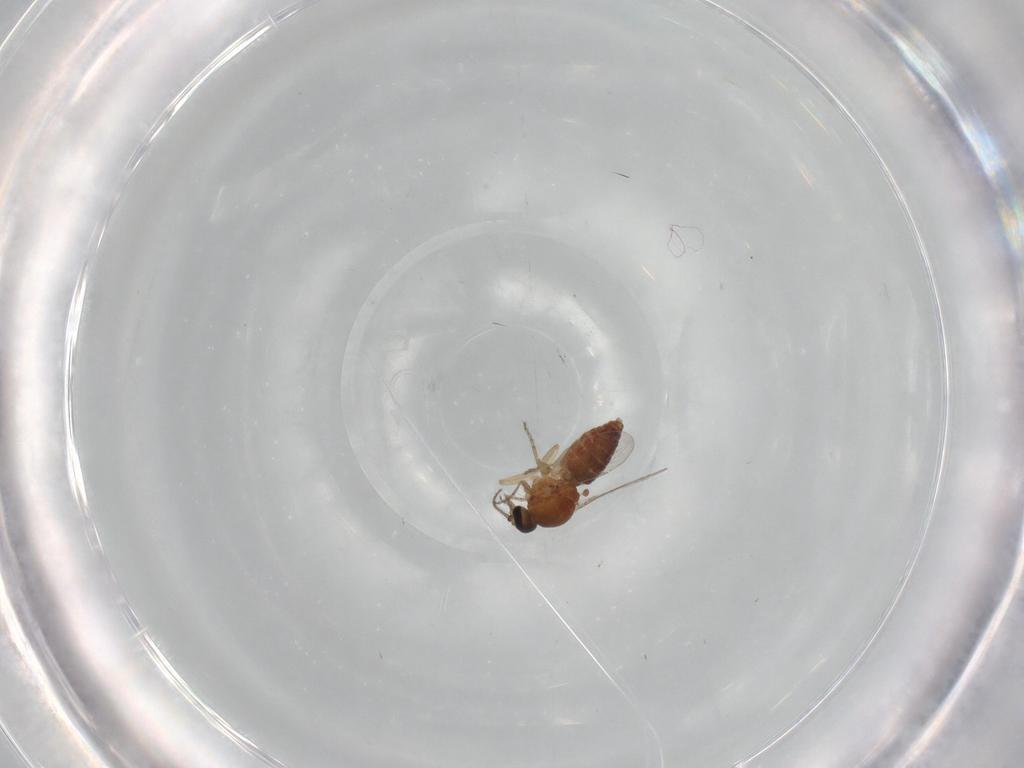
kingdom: Animalia
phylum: Arthropoda
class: Insecta
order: Diptera
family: Ceratopogonidae
